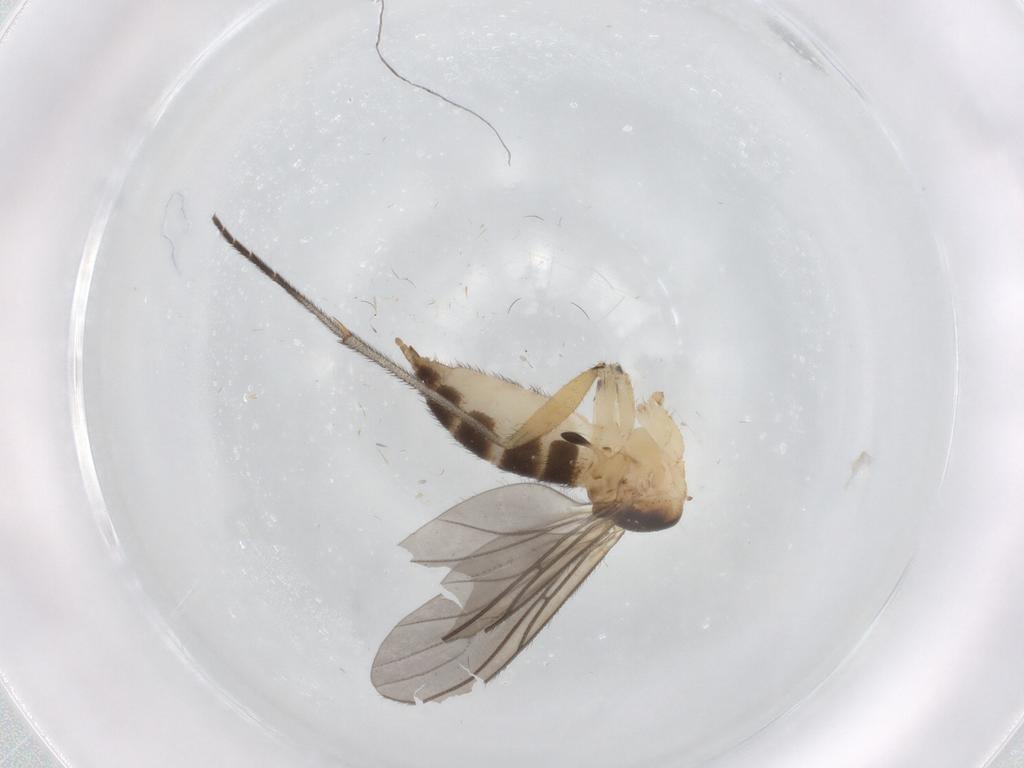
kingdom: Animalia
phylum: Arthropoda
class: Insecta
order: Diptera
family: Sciaridae
